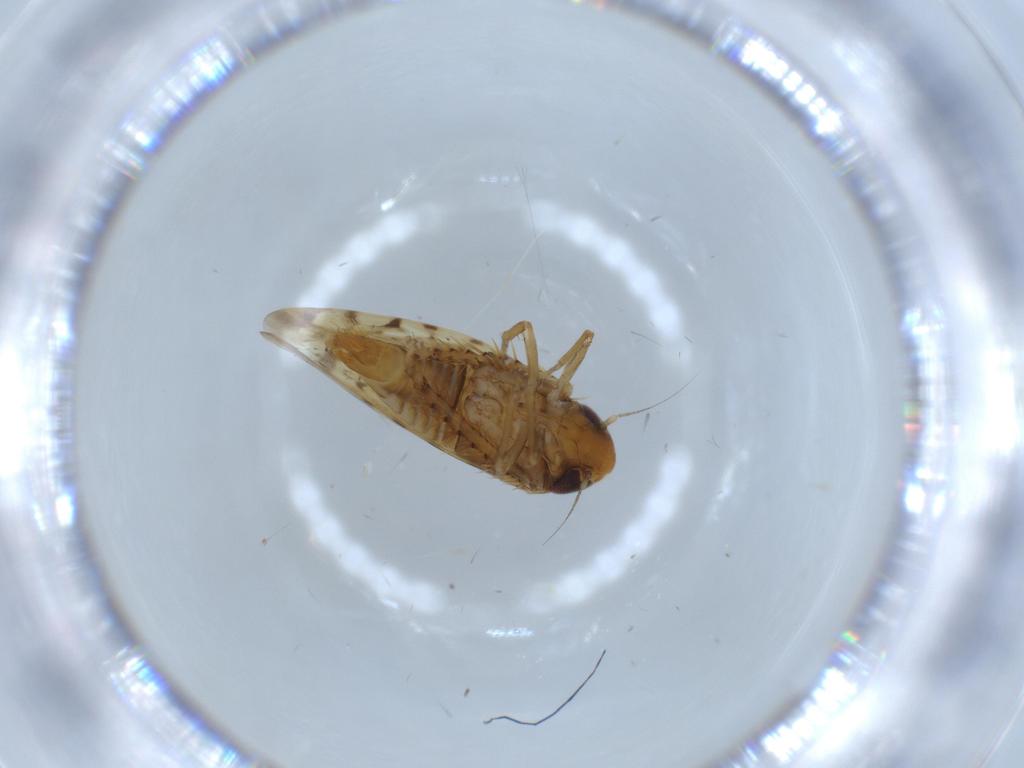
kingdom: Animalia
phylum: Arthropoda
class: Insecta
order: Hemiptera
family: Cicadellidae
